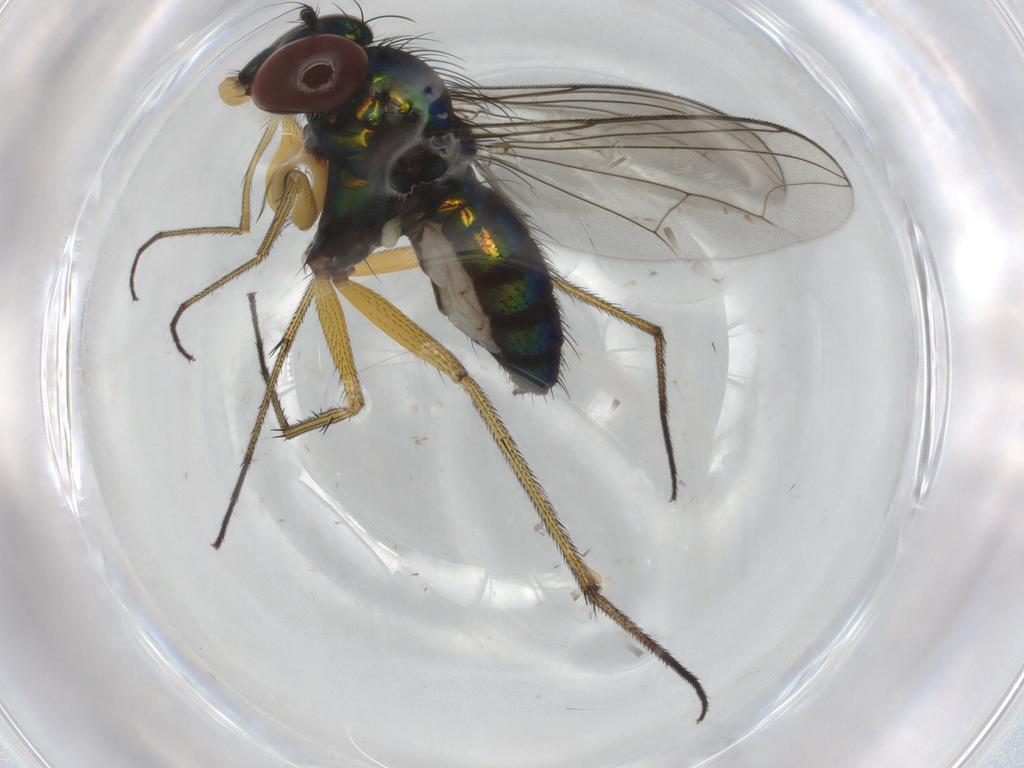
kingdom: Animalia
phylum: Arthropoda
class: Insecta
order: Diptera
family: Dolichopodidae
